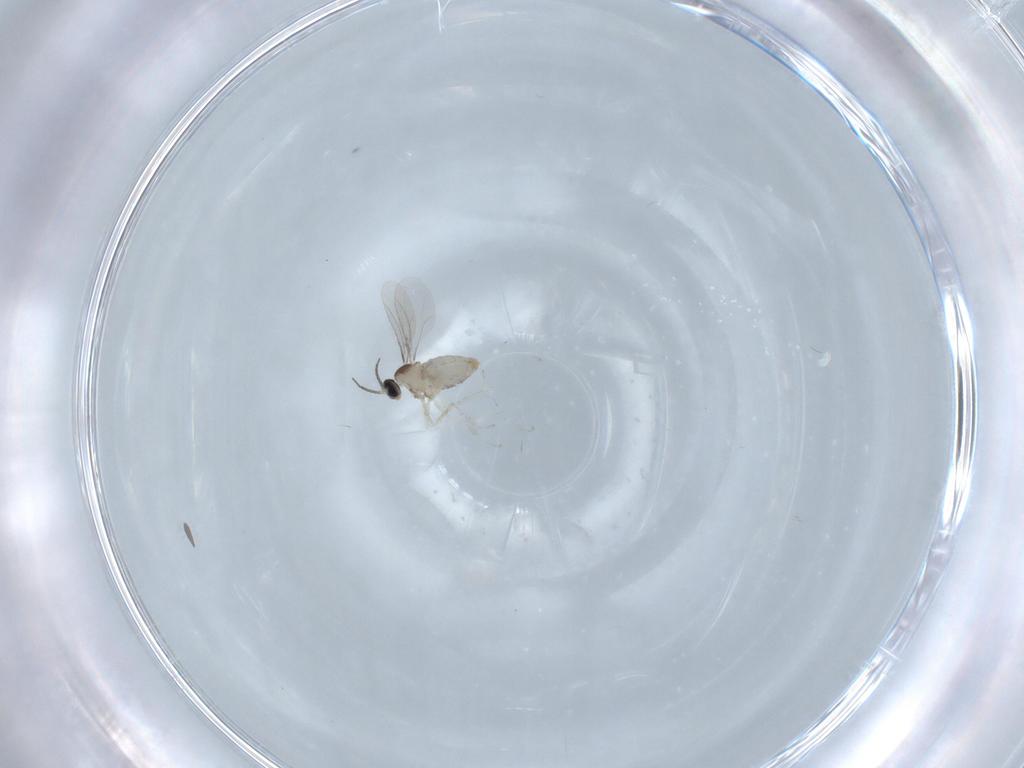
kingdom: Animalia
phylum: Arthropoda
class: Insecta
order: Diptera
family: Cecidomyiidae
